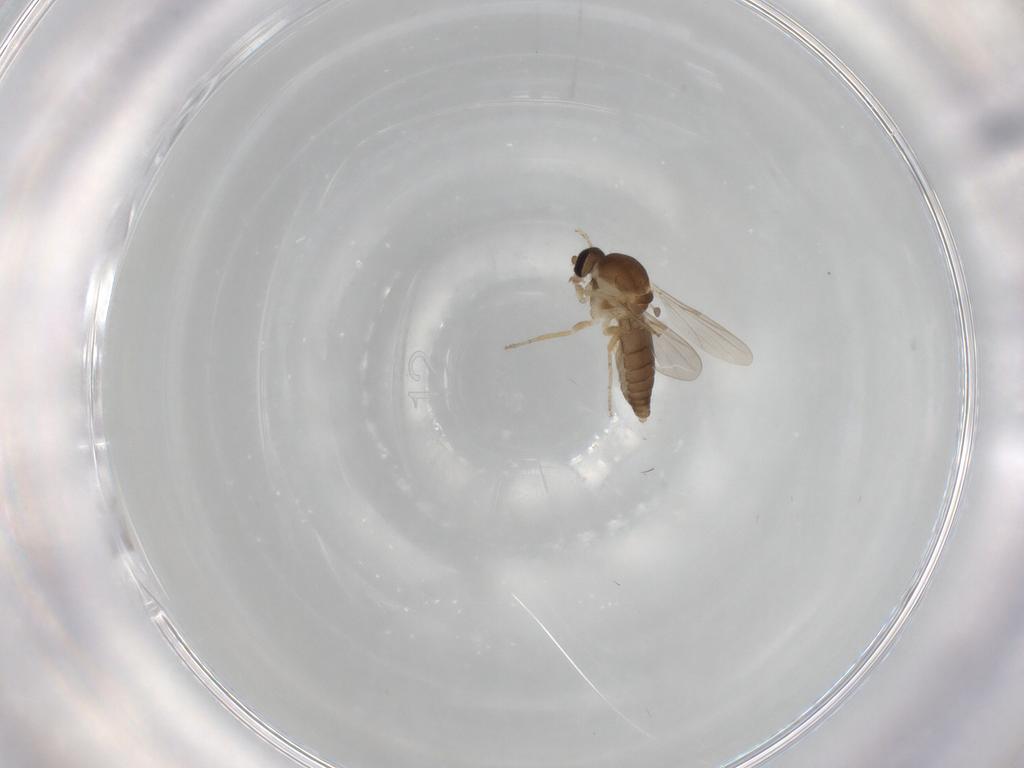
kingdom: Animalia
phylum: Arthropoda
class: Insecta
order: Diptera
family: Ceratopogonidae
